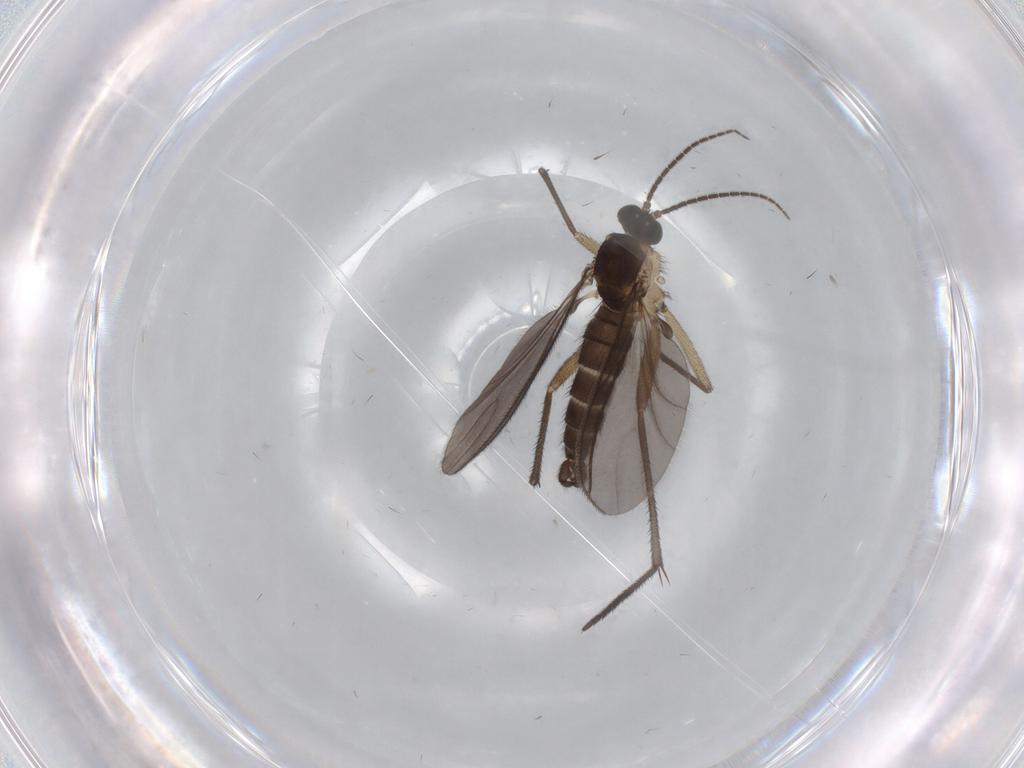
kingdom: Animalia
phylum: Arthropoda
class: Insecta
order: Diptera
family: Sciaridae
